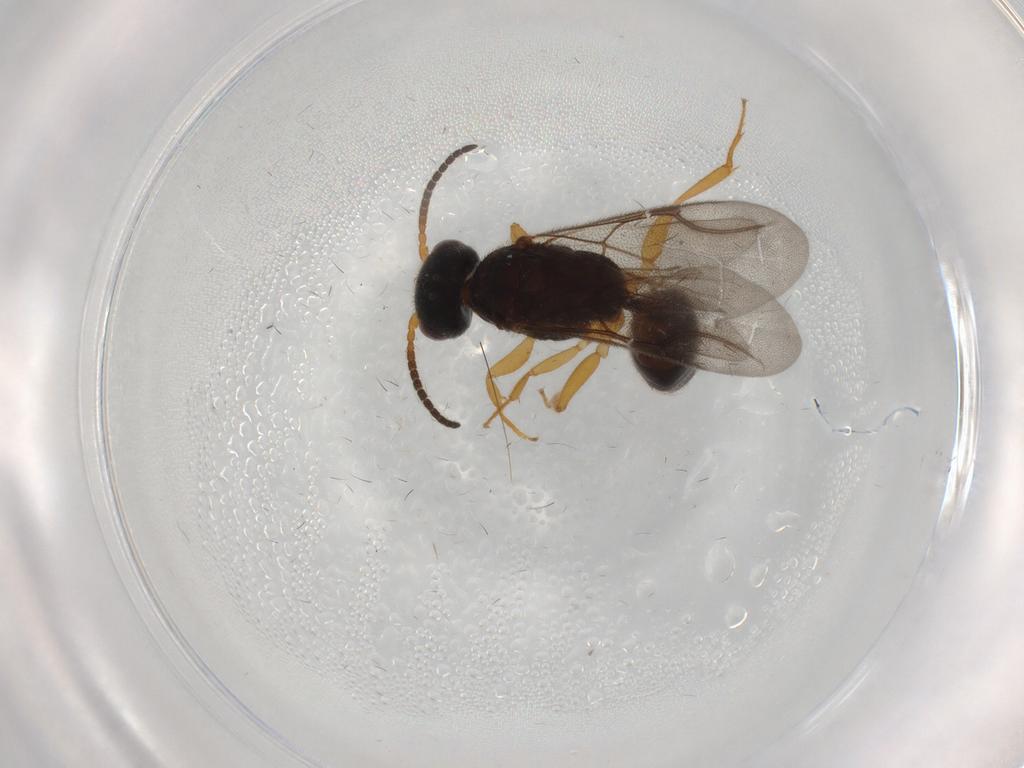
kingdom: Animalia
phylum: Arthropoda
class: Insecta
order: Hymenoptera
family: Bethylidae
